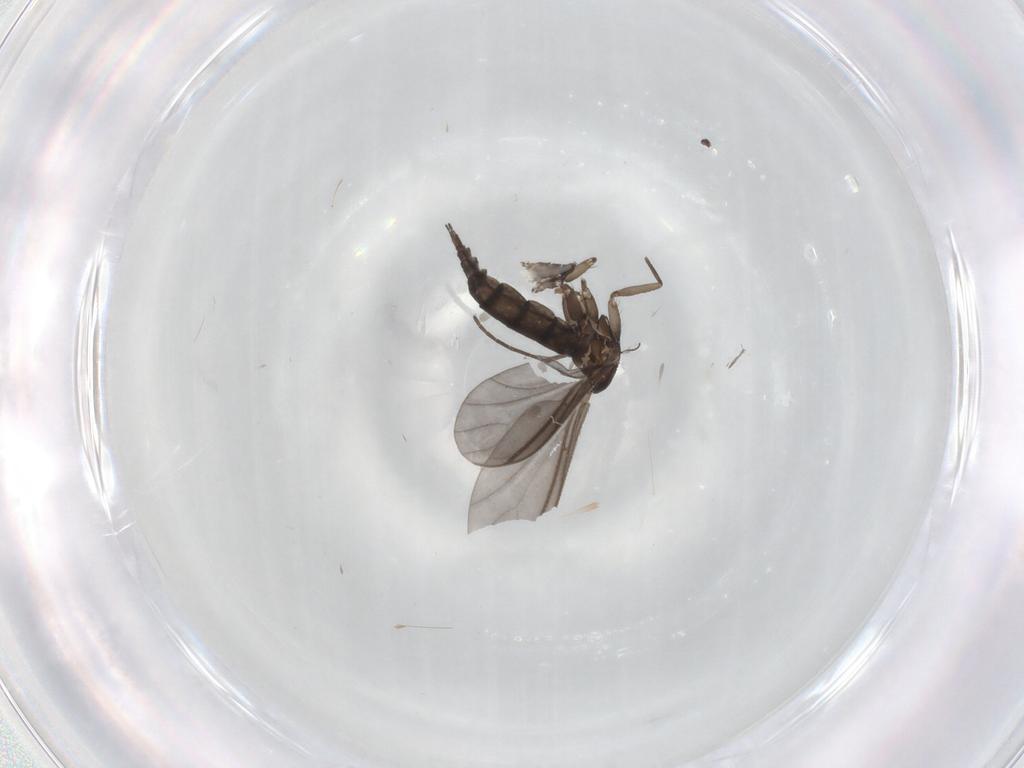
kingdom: Animalia
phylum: Arthropoda
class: Insecta
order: Diptera
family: Sciaridae
